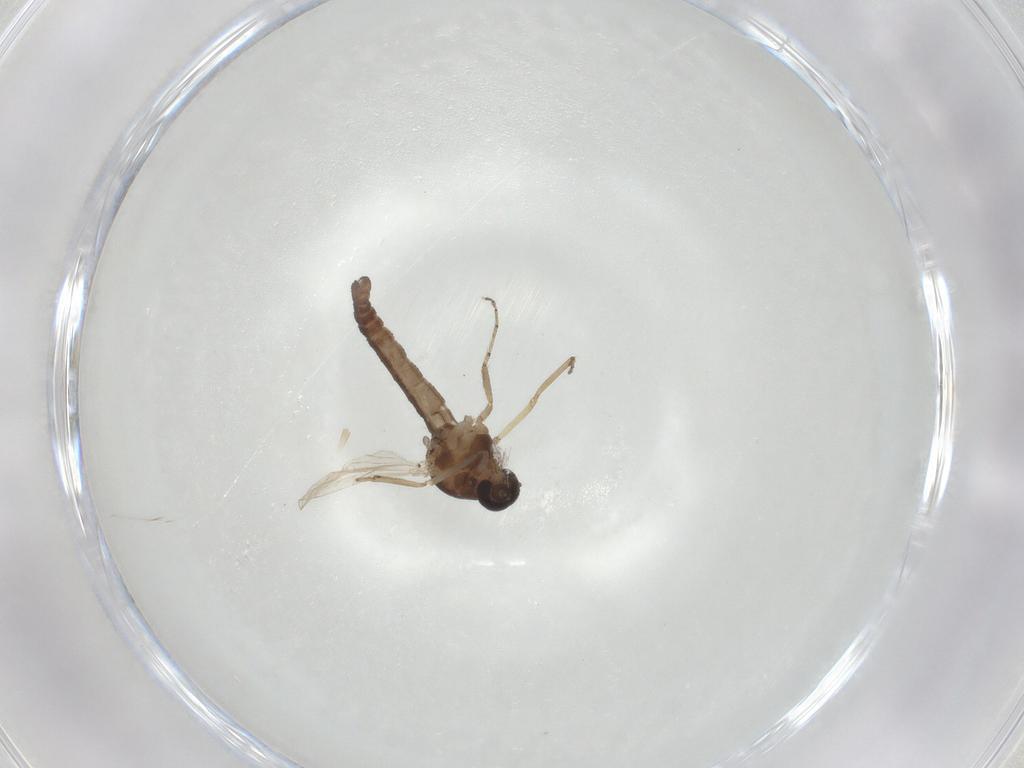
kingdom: Animalia
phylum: Arthropoda
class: Insecta
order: Diptera
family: Ceratopogonidae
